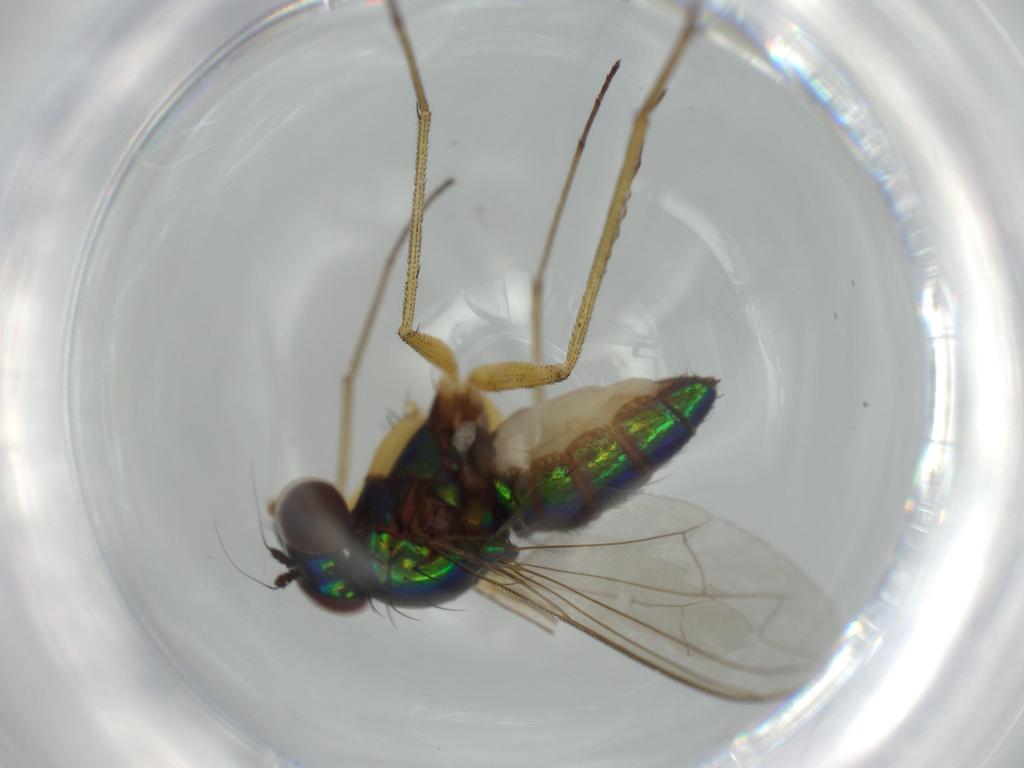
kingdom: Animalia
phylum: Arthropoda
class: Insecta
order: Diptera
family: Dolichopodidae
